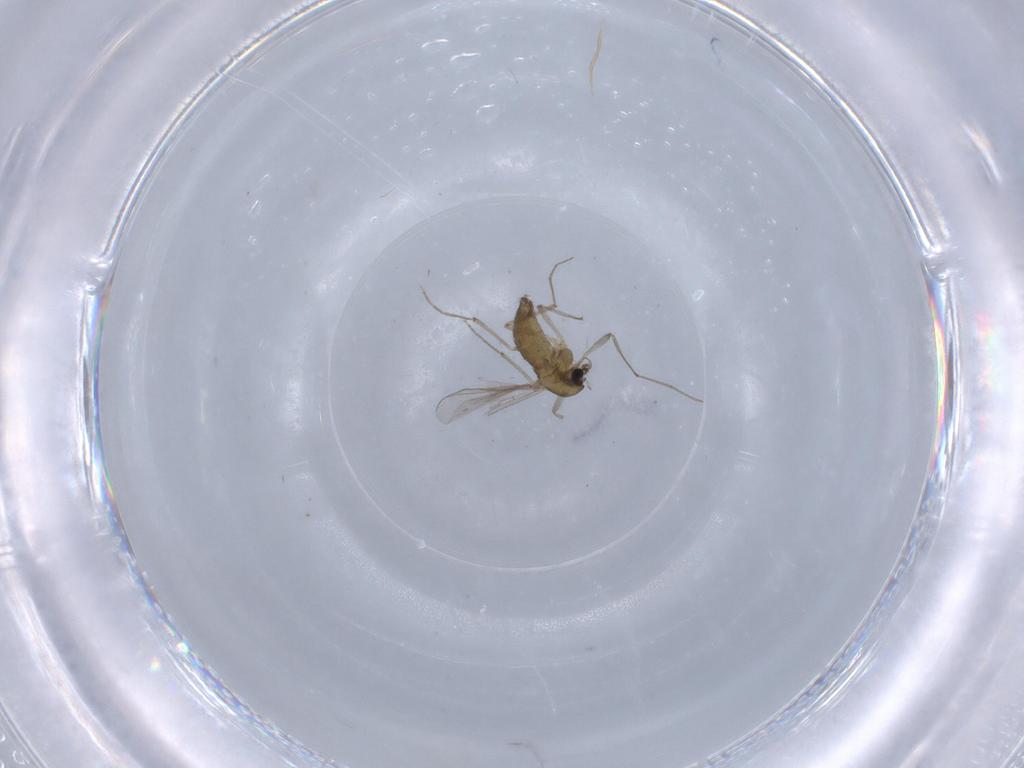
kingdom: Animalia
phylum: Arthropoda
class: Insecta
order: Diptera
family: Chironomidae
